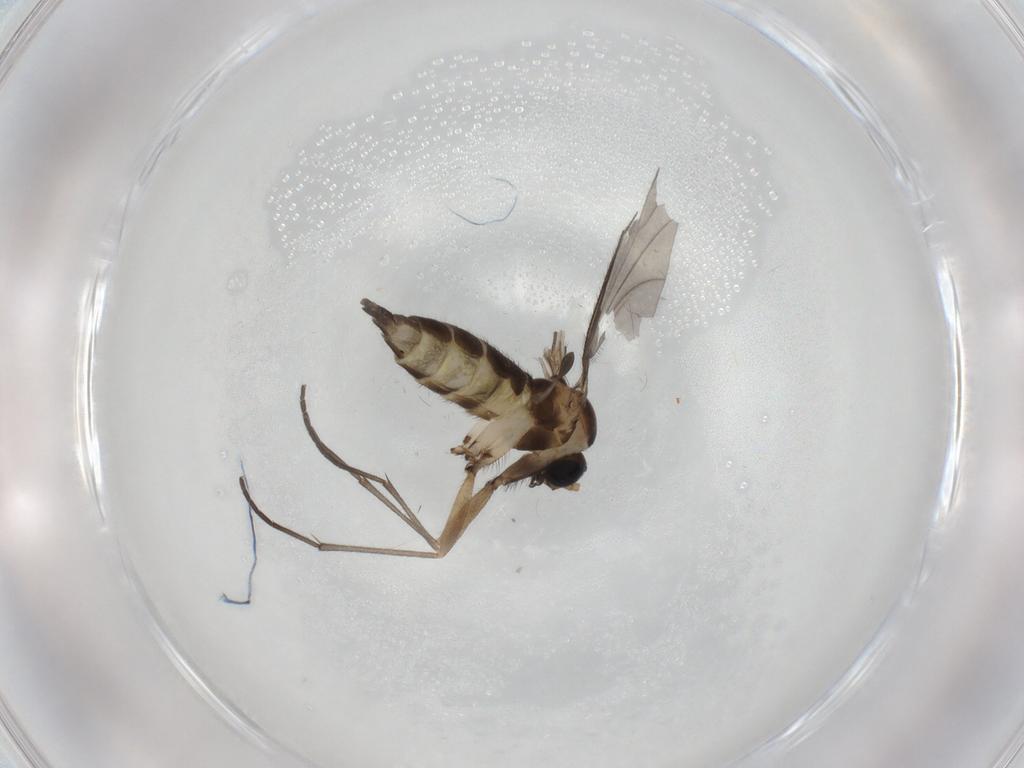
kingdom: Animalia
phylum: Arthropoda
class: Insecta
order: Diptera
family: Sciaridae
